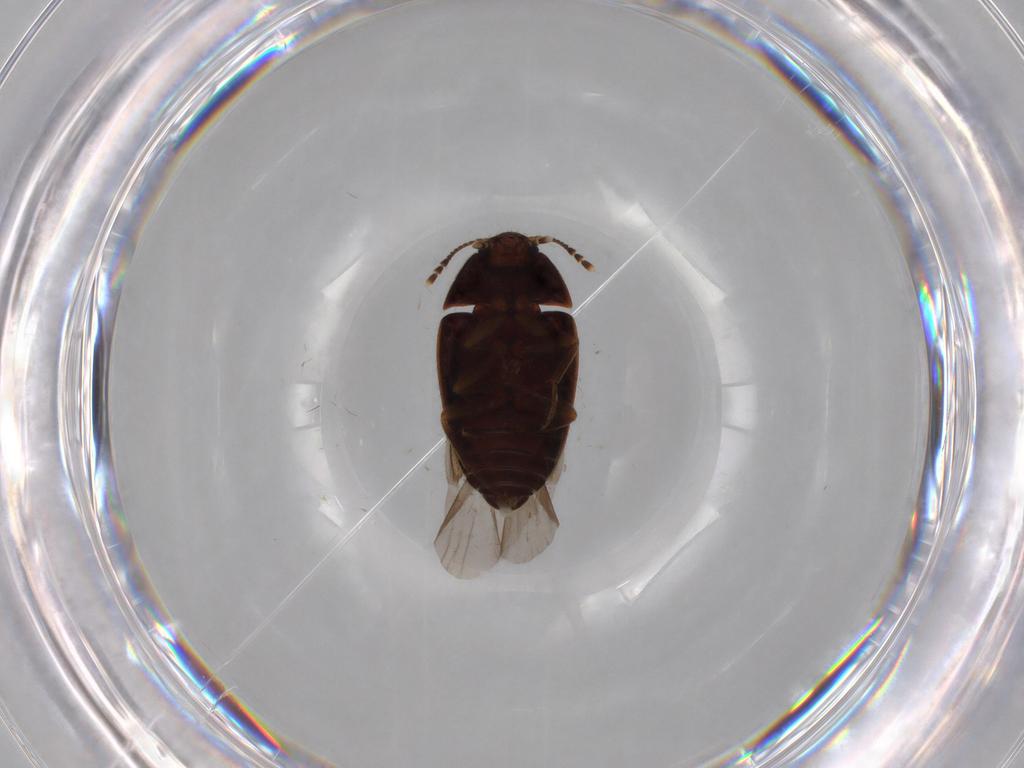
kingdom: Animalia
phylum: Arthropoda
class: Insecta
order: Coleoptera
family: Mycetophagidae
